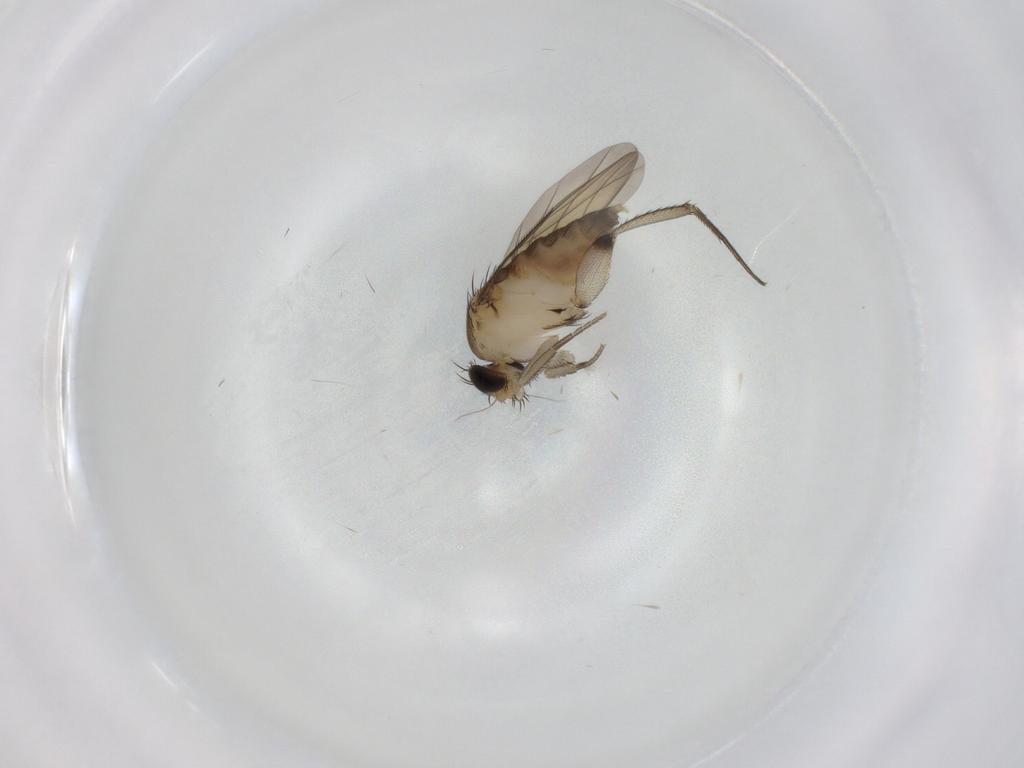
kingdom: Animalia
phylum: Arthropoda
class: Insecta
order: Diptera
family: Phoridae
